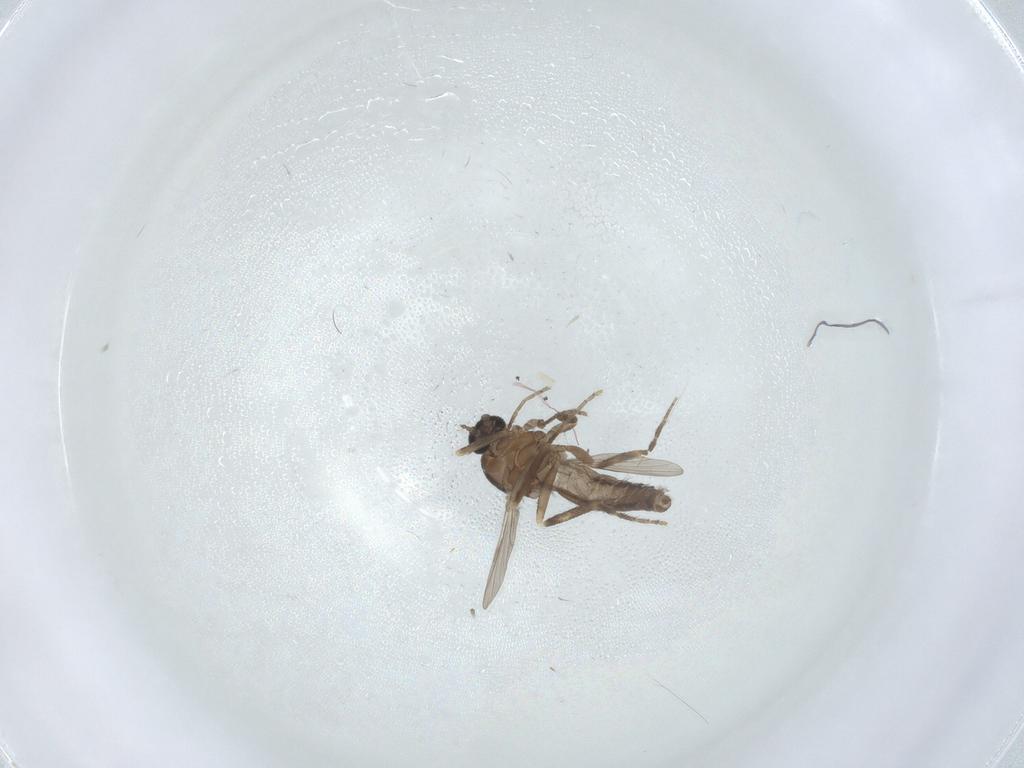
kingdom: Animalia
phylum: Arthropoda
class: Insecta
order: Diptera
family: Ceratopogonidae
